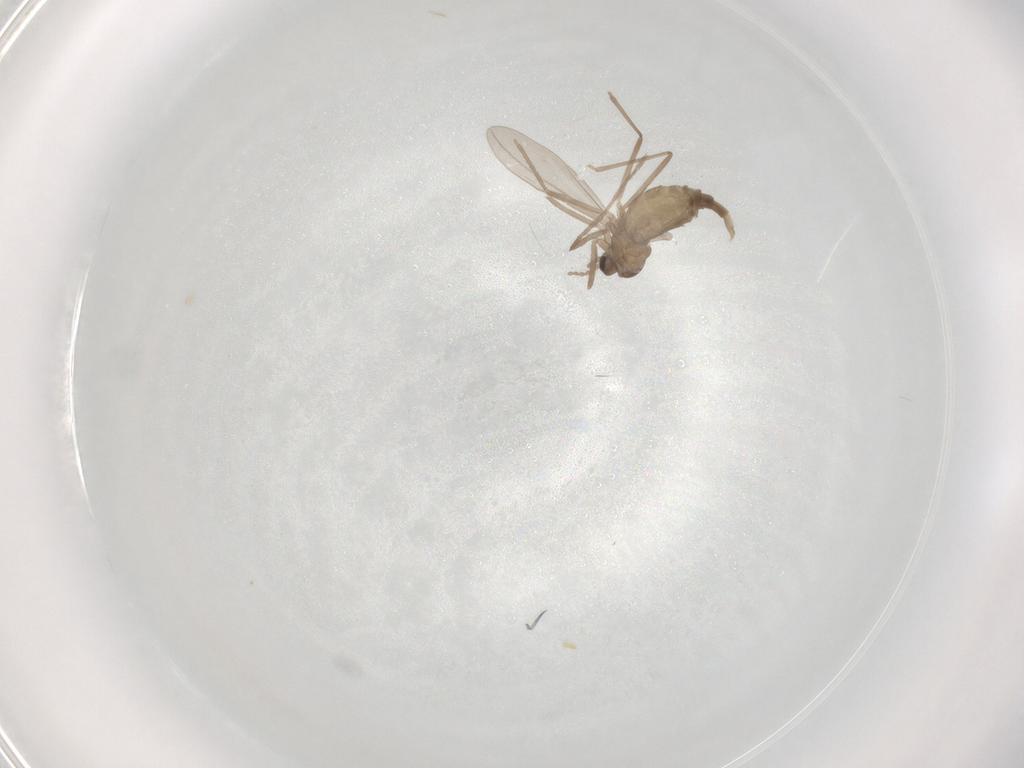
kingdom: Animalia
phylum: Arthropoda
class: Insecta
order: Diptera
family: Cecidomyiidae
